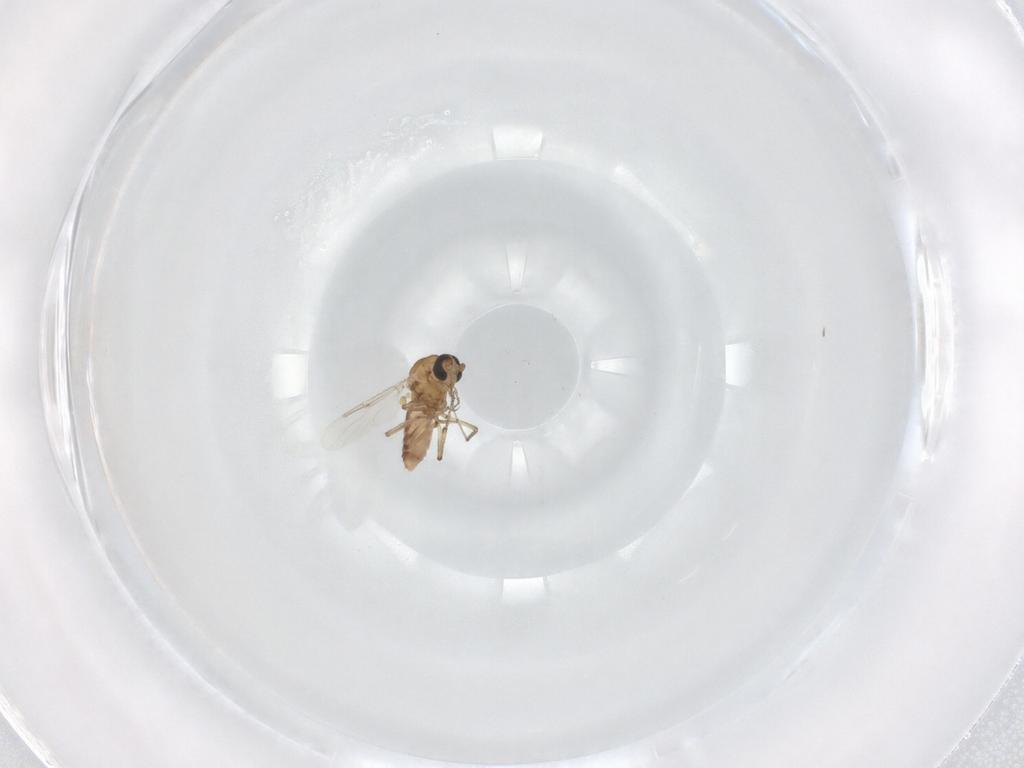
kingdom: Animalia
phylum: Arthropoda
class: Insecta
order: Diptera
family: Ceratopogonidae
